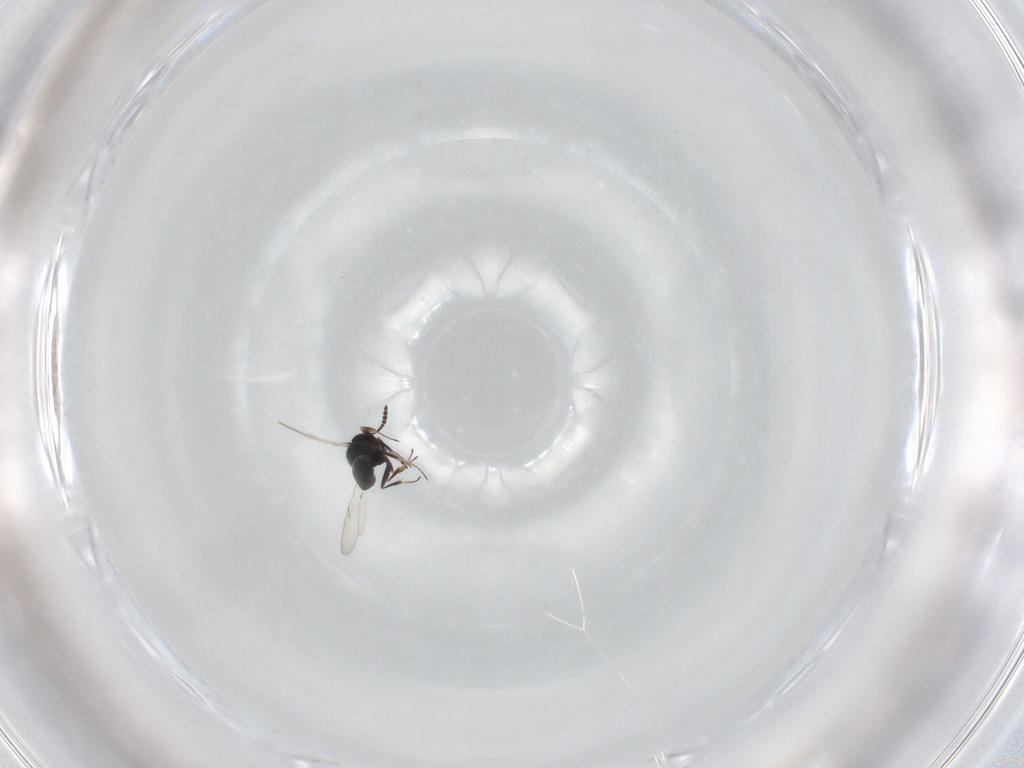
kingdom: Animalia
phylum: Arthropoda
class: Insecta
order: Hymenoptera
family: Scelionidae
